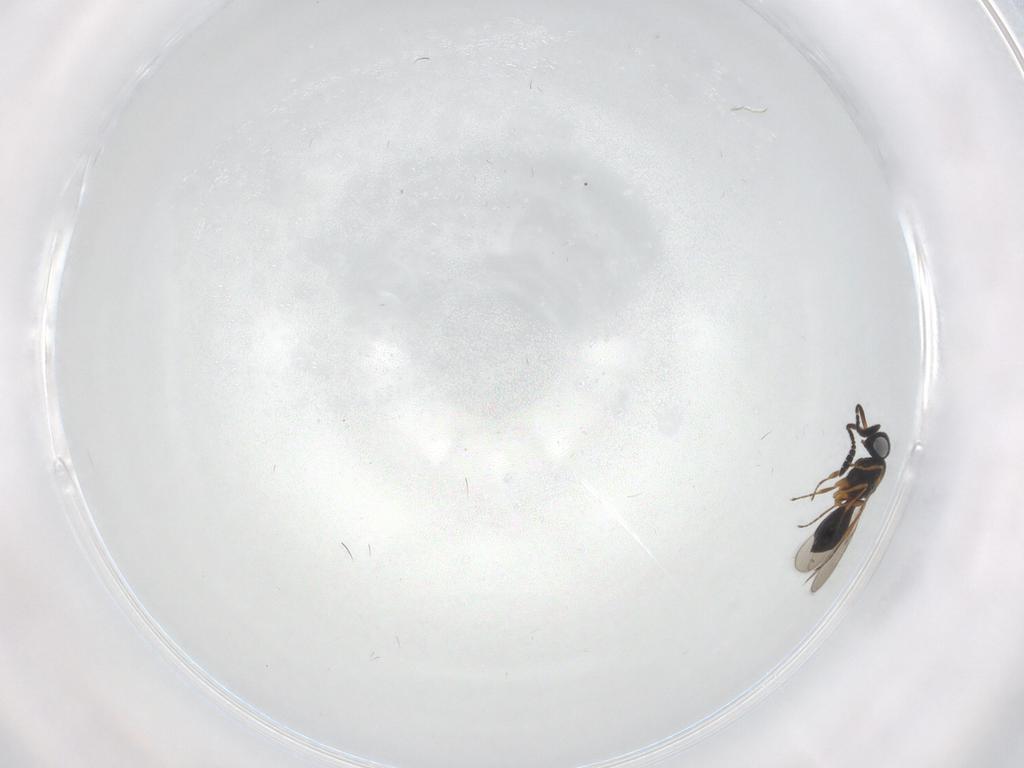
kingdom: Animalia
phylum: Arthropoda
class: Insecta
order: Hymenoptera
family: Scelionidae
